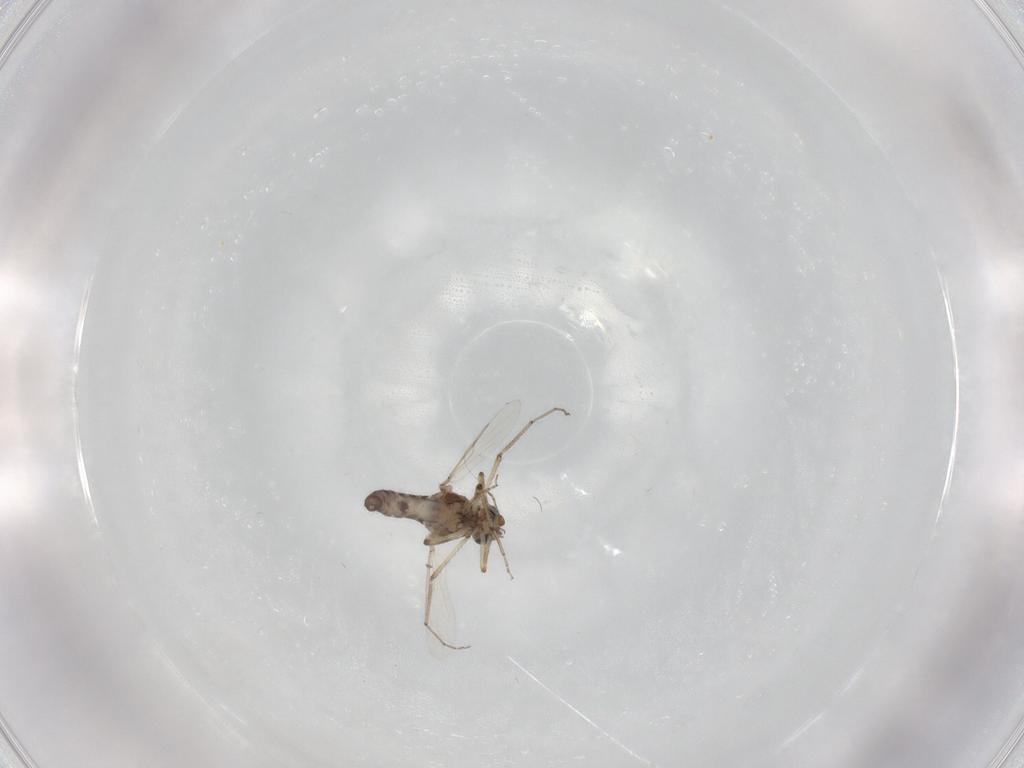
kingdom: Animalia
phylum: Arthropoda
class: Insecta
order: Diptera
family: Ceratopogonidae
